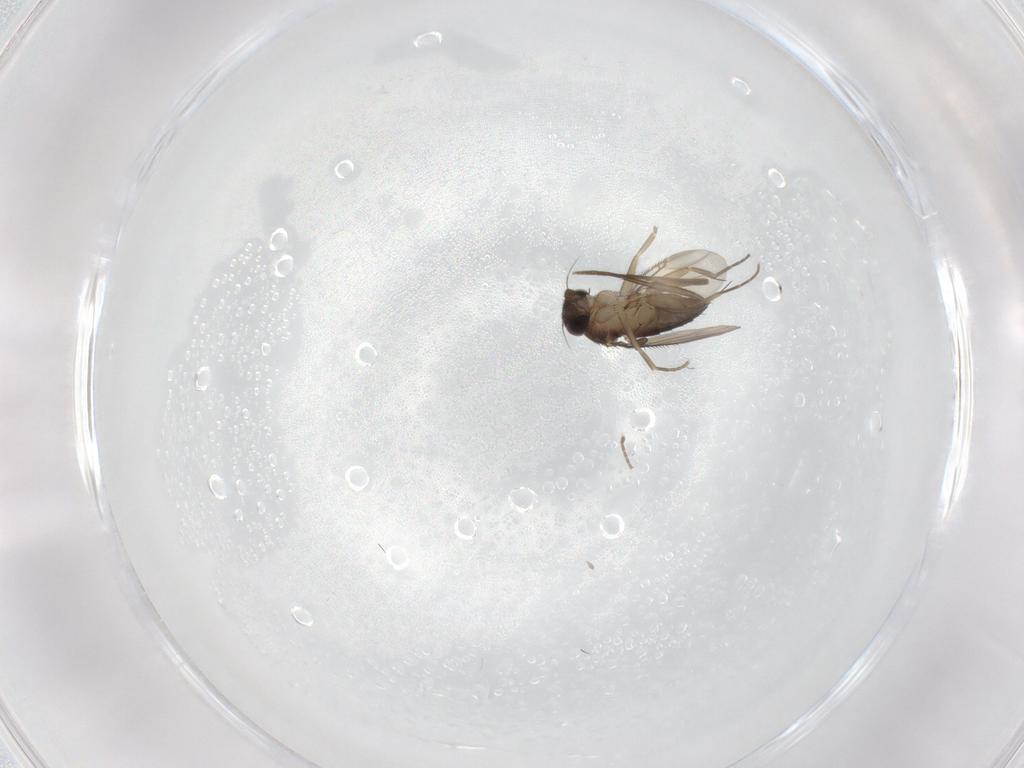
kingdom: Animalia
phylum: Arthropoda
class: Insecta
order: Diptera
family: Phoridae
